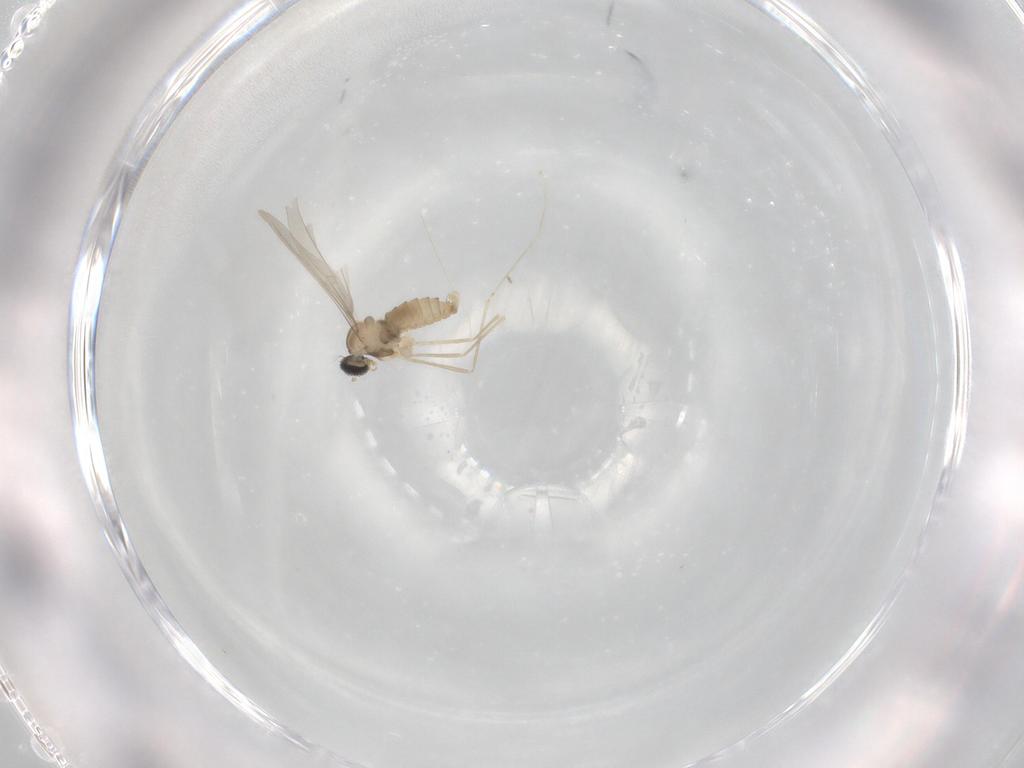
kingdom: Animalia
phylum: Arthropoda
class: Insecta
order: Diptera
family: Cecidomyiidae
